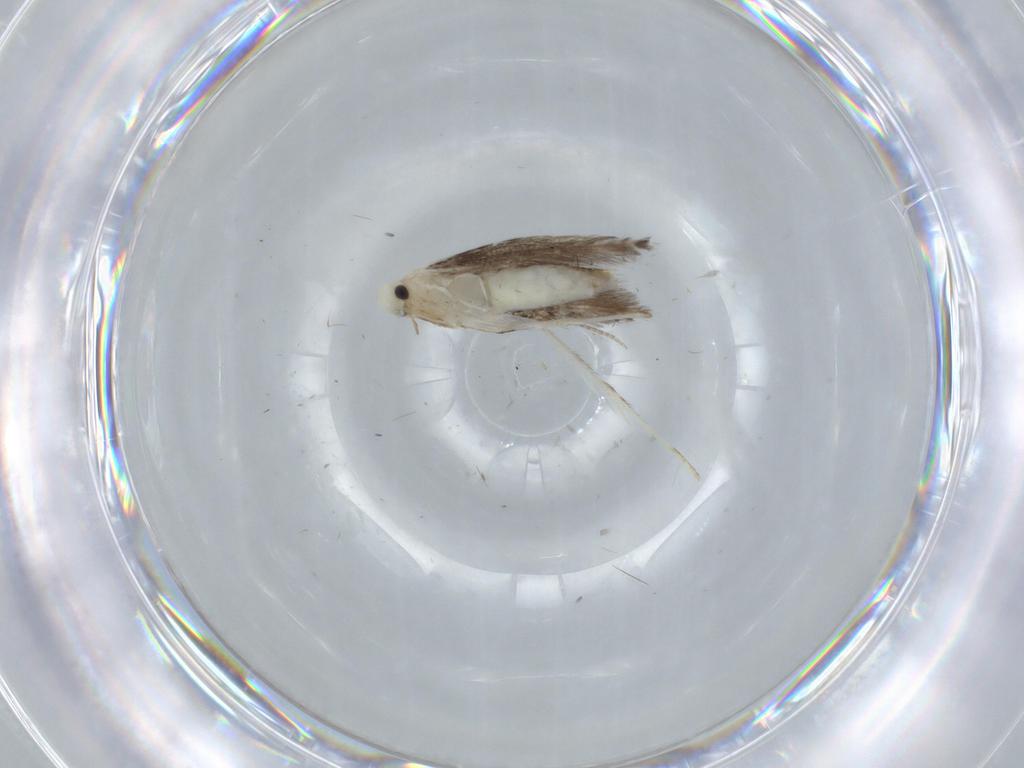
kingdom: Animalia
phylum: Arthropoda
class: Insecta
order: Lepidoptera
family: Gracillariidae
